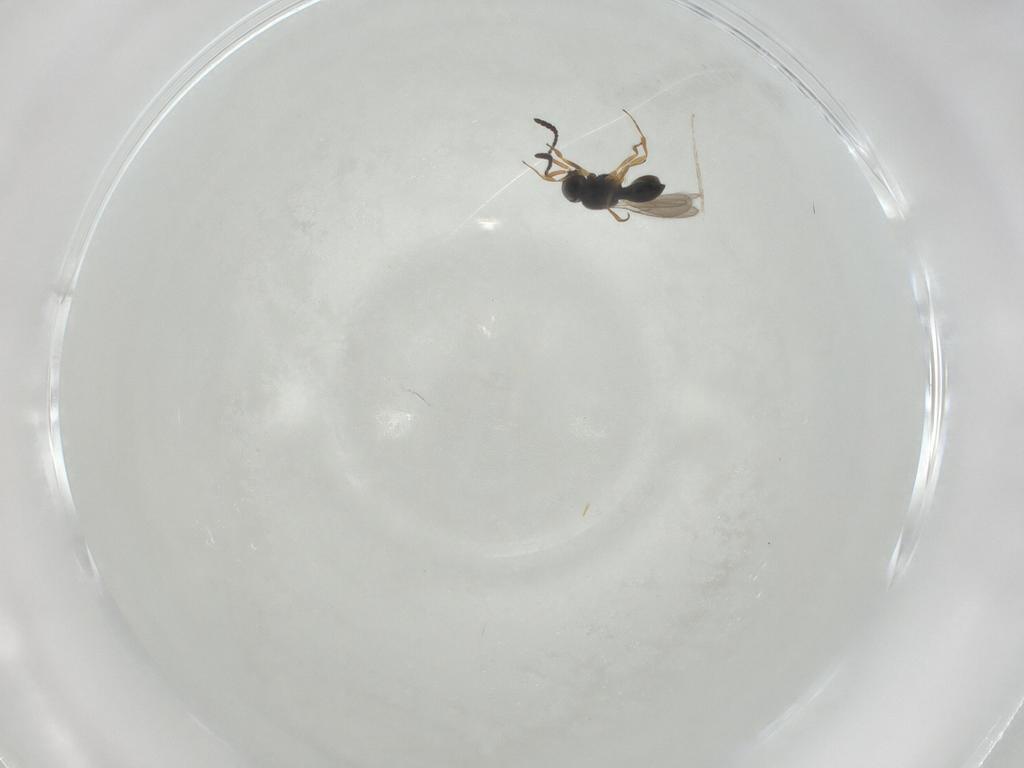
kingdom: Animalia
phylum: Arthropoda
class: Insecta
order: Hymenoptera
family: Scelionidae
